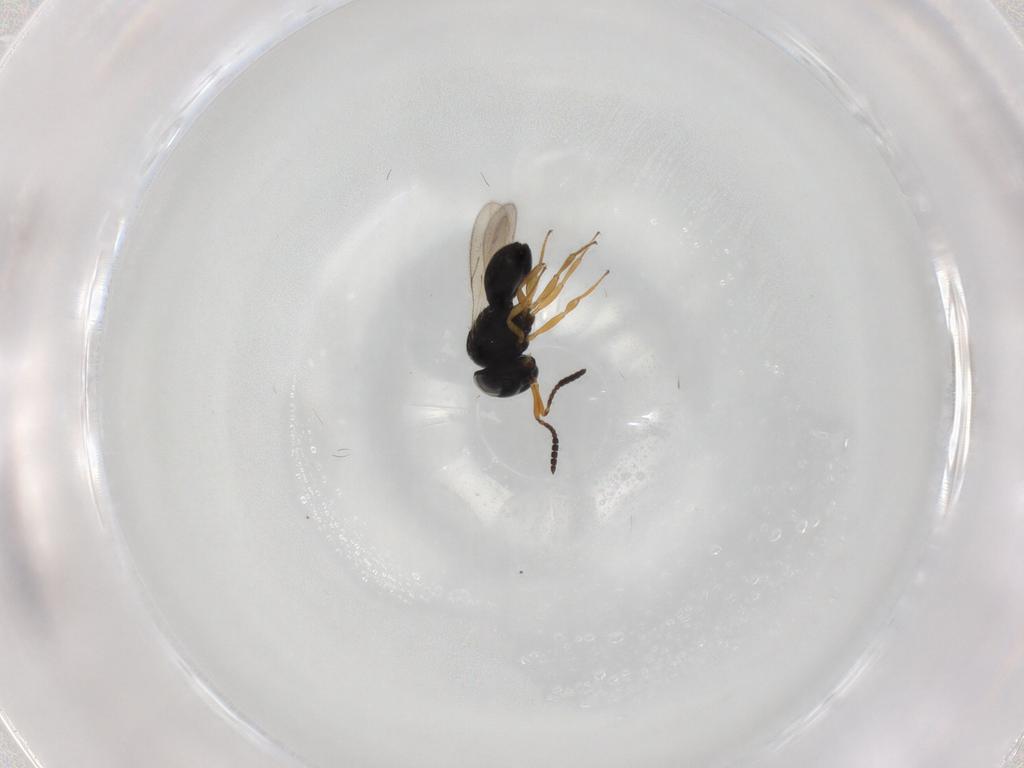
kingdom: Animalia
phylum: Arthropoda
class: Insecta
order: Hymenoptera
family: Scelionidae
